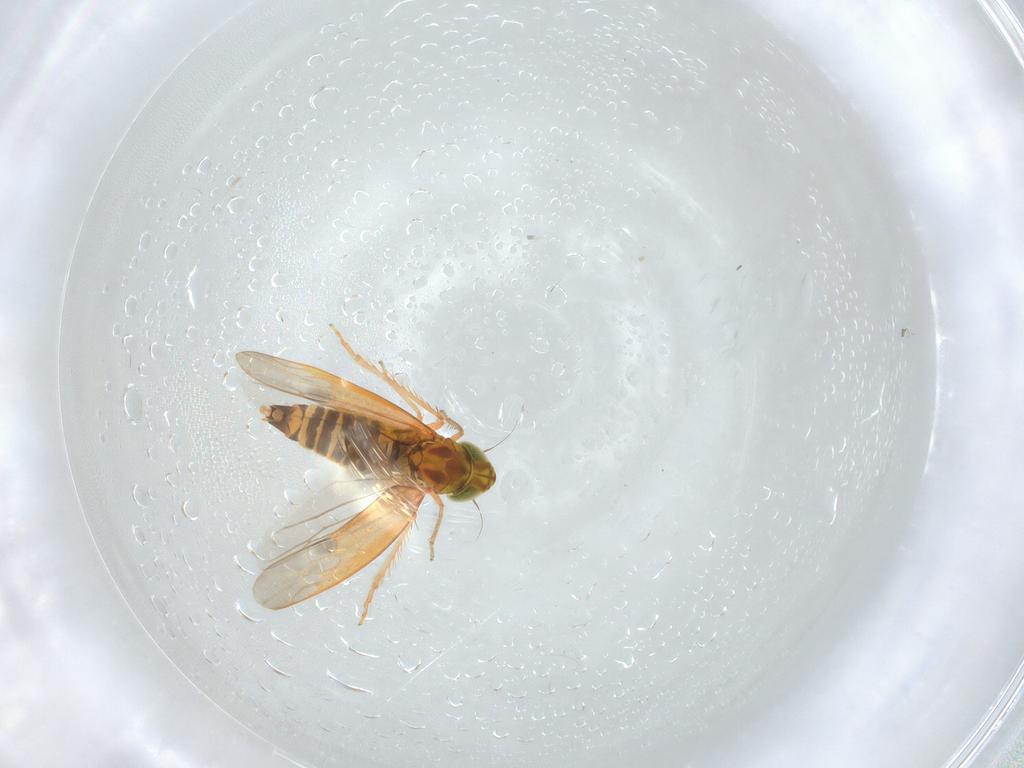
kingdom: Animalia
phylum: Arthropoda
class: Insecta
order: Hemiptera
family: Cicadellidae
